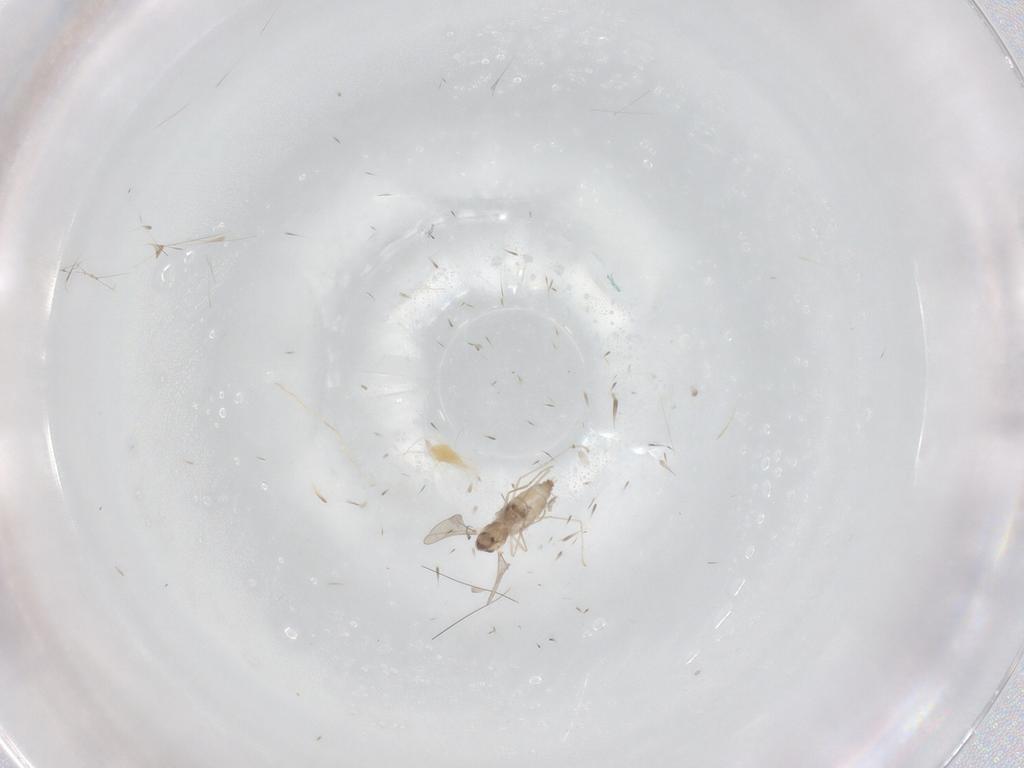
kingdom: Animalia
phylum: Arthropoda
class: Insecta
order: Diptera
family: Cecidomyiidae
